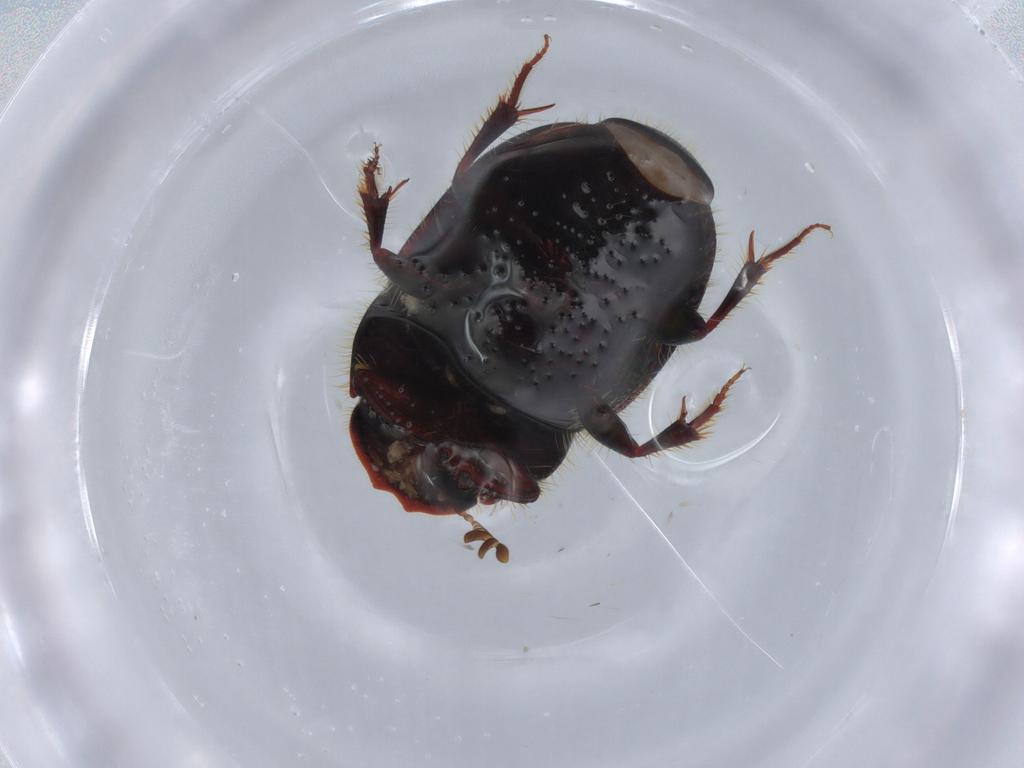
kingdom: Animalia
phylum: Arthropoda
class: Insecta
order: Coleoptera
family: Scarabaeidae
